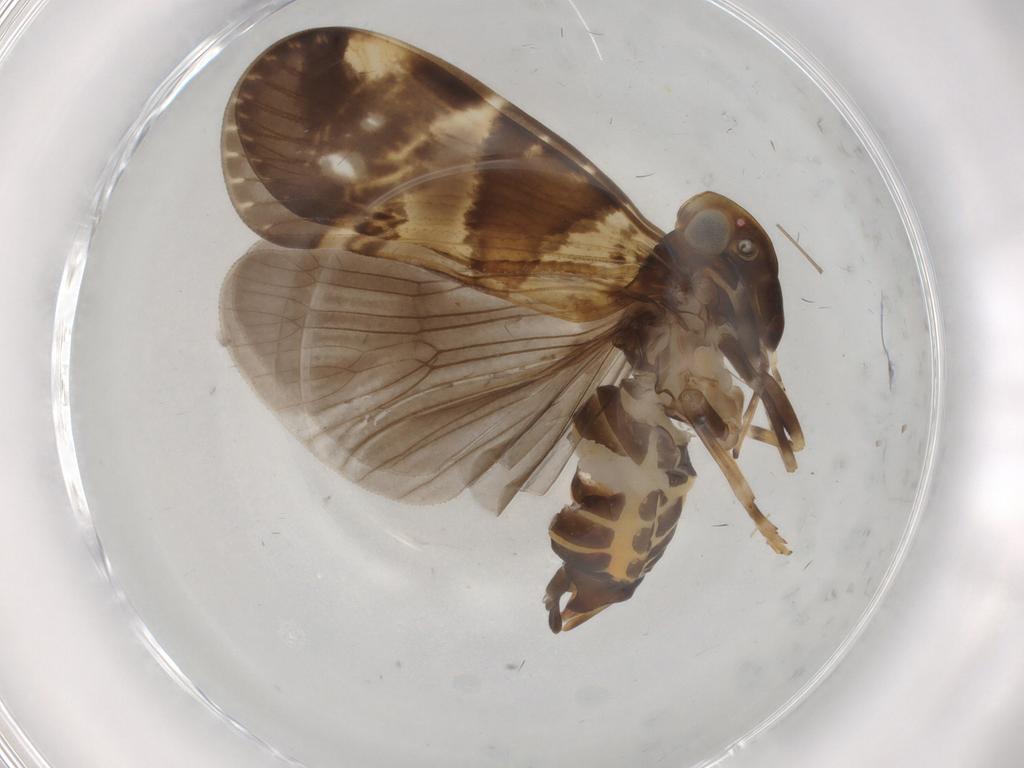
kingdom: Animalia
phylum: Arthropoda
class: Insecta
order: Hemiptera
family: Cixiidae
